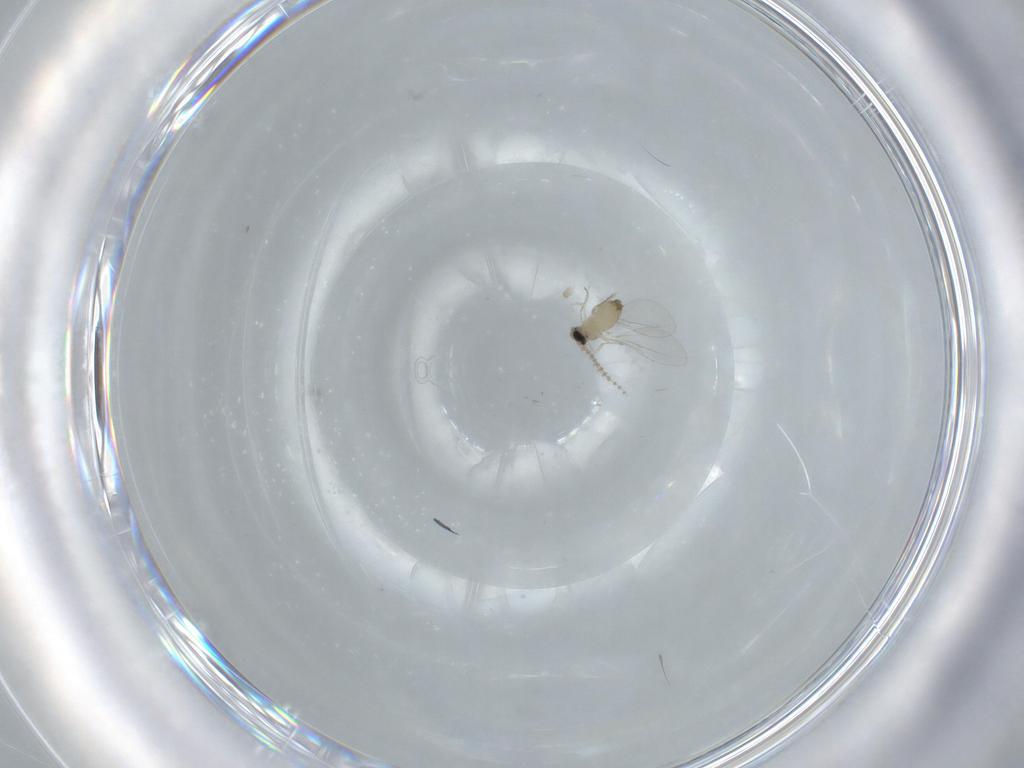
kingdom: Animalia
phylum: Arthropoda
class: Insecta
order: Diptera
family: Cecidomyiidae
